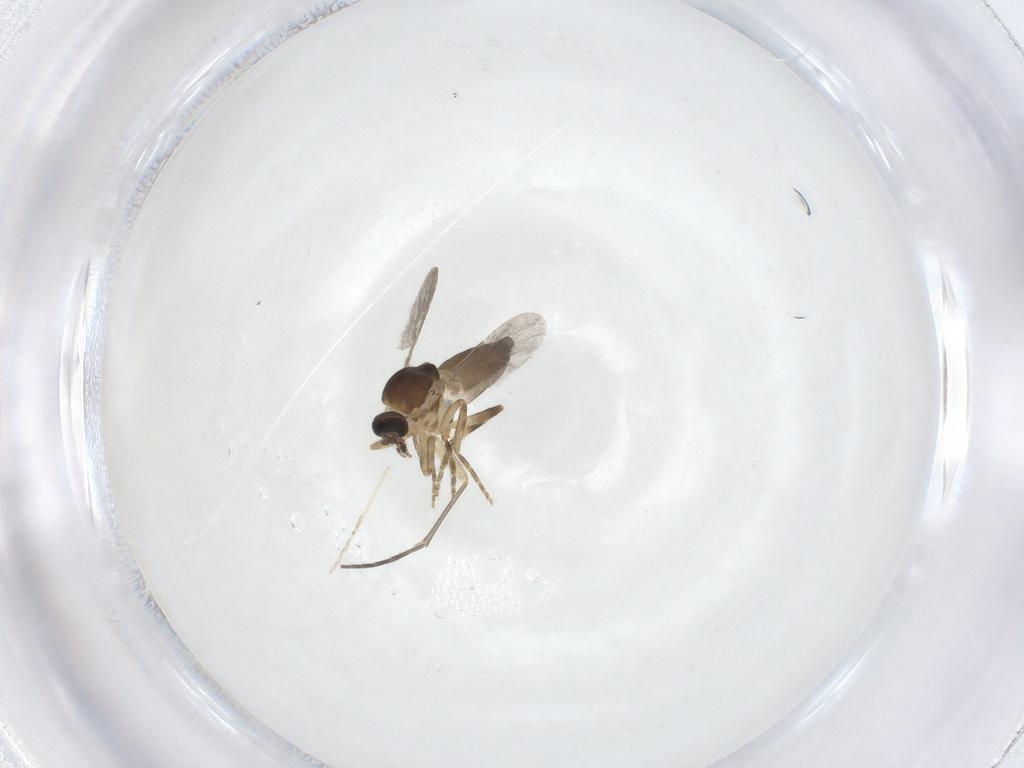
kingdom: Animalia
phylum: Arthropoda
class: Insecta
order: Diptera
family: Ceratopogonidae
